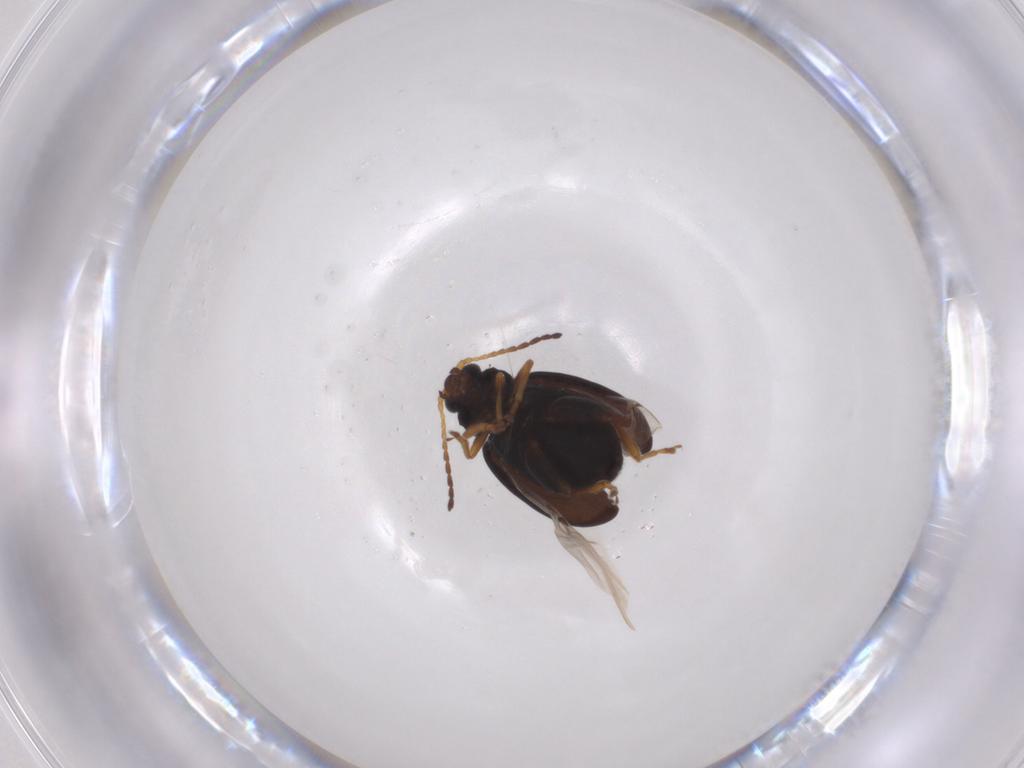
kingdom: Animalia
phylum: Arthropoda
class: Insecta
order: Coleoptera
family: Chrysomelidae
